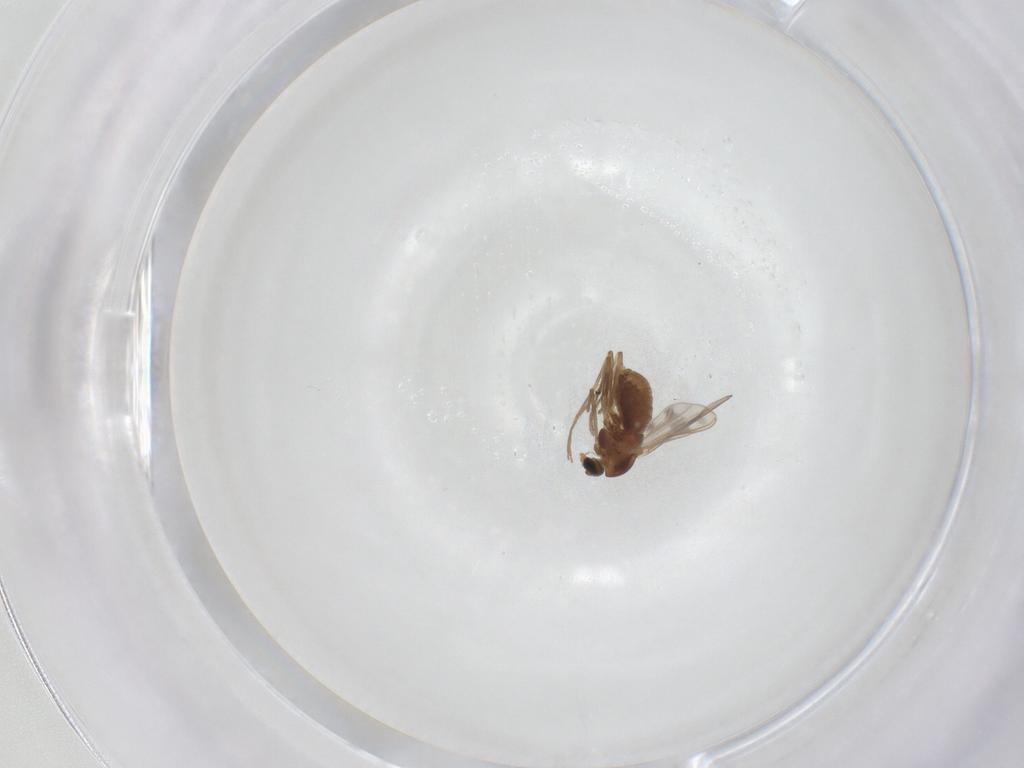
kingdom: Animalia
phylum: Arthropoda
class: Insecta
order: Diptera
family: Chironomidae
